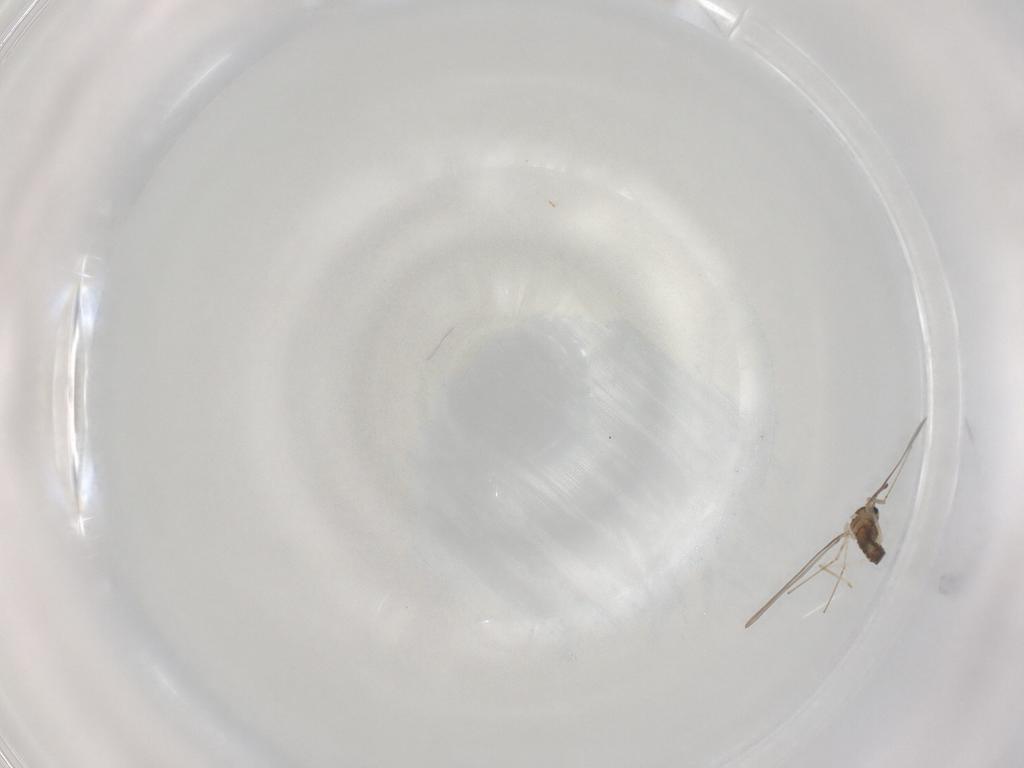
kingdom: Animalia
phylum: Arthropoda
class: Insecta
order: Diptera
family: Cecidomyiidae
